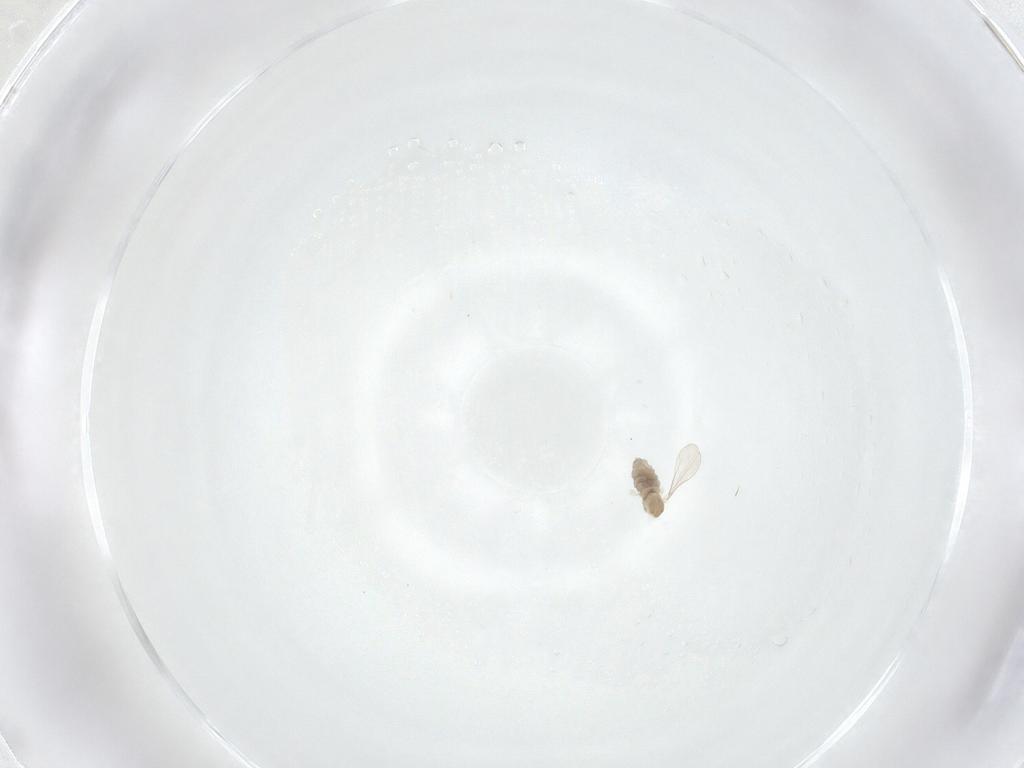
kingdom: Animalia
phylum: Arthropoda
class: Insecta
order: Diptera
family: Cecidomyiidae
